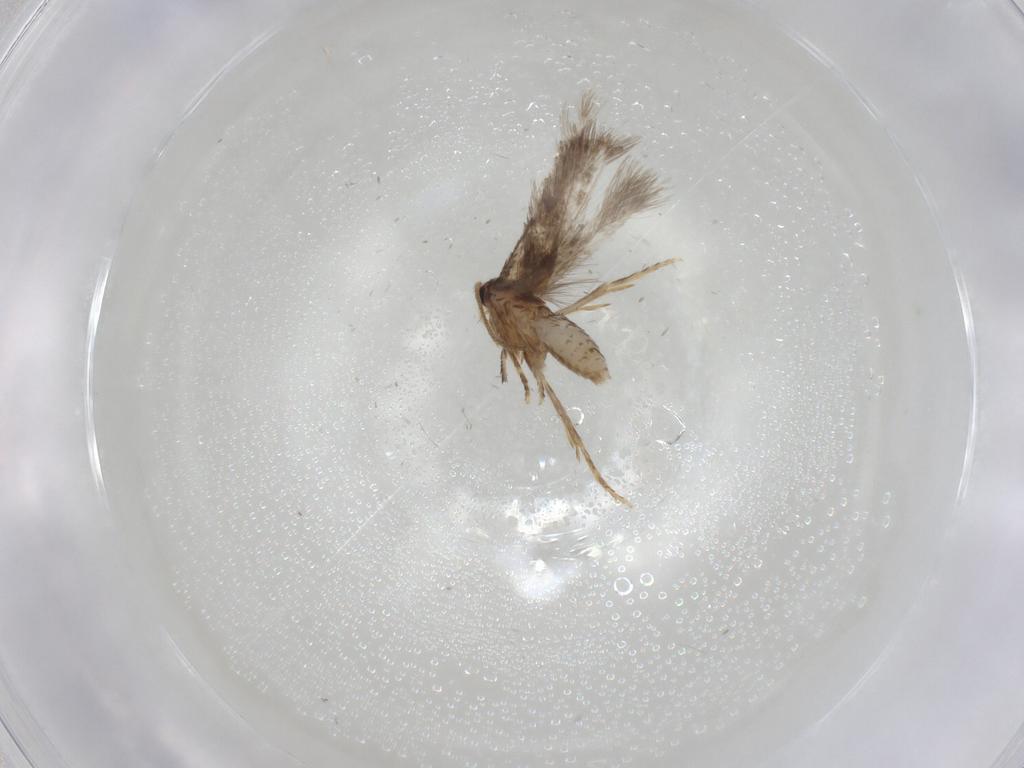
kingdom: Animalia
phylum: Arthropoda
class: Insecta
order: Lepidoptera
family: Nepticulidae
